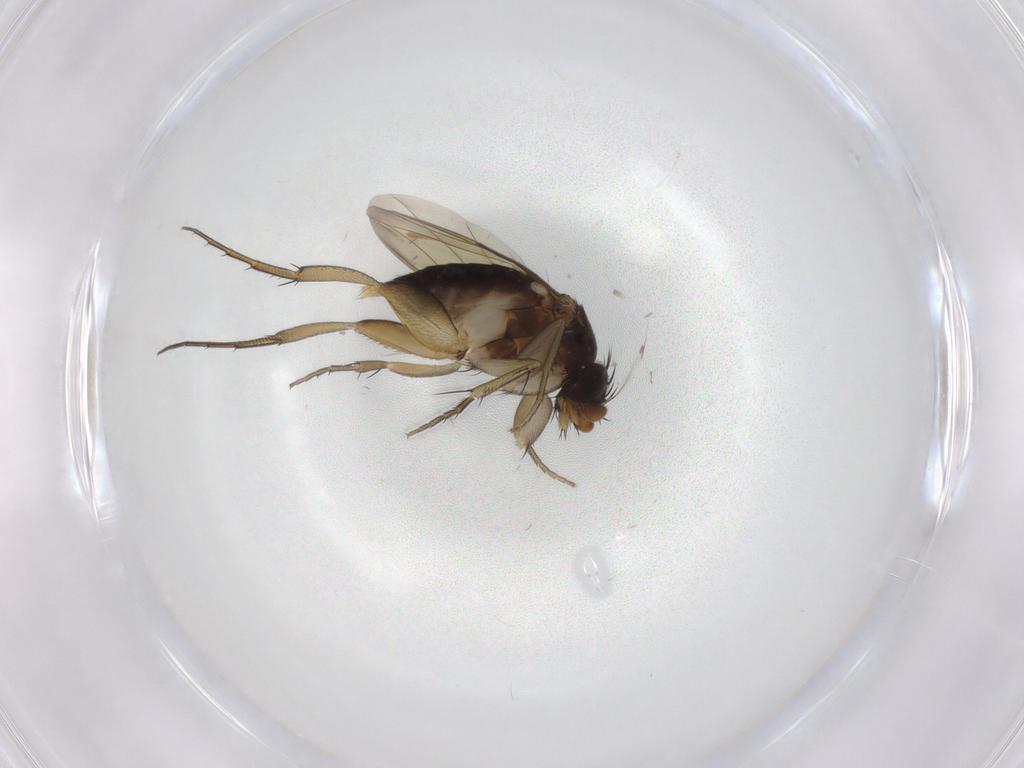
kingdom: Animalia
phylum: Arthropoda
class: Insecta
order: Diptera
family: Phoridae
